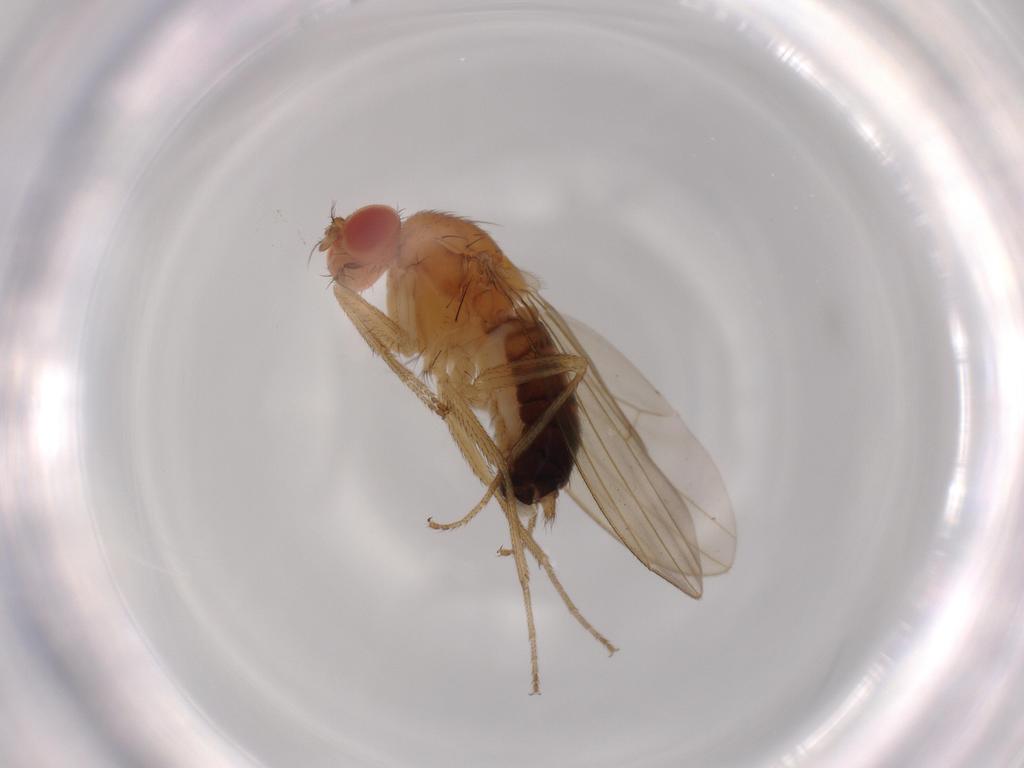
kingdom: Animalia
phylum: Arthropoda
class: Insecta
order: Diptera
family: Drosophilidae
